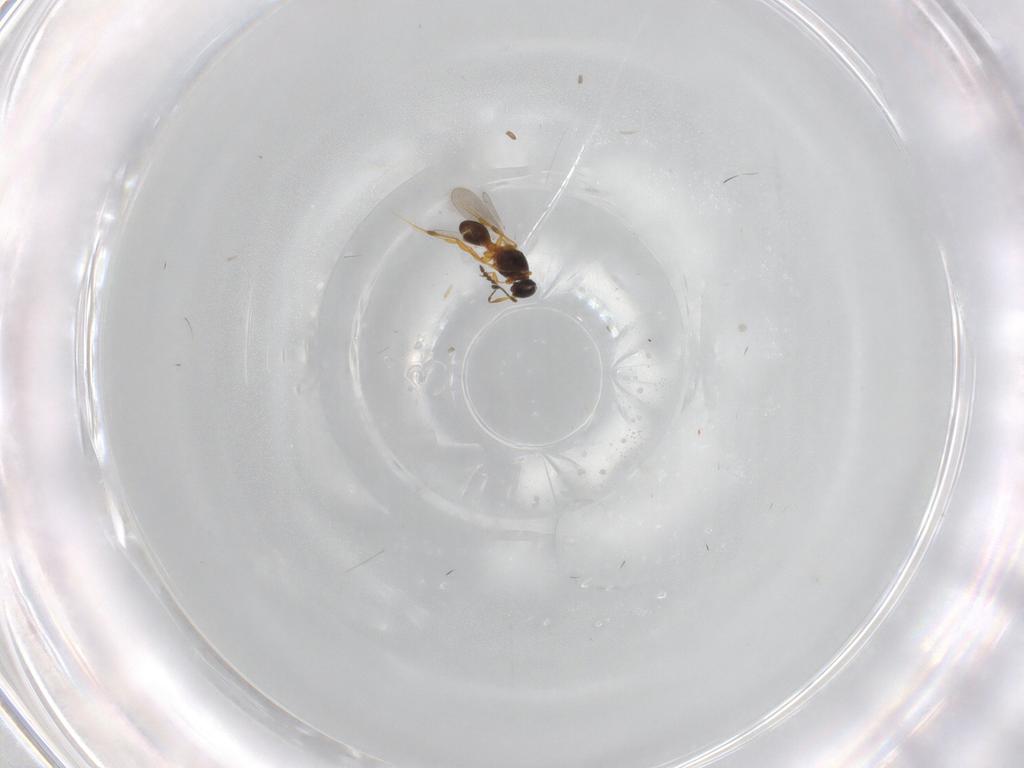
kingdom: Animalia
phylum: Arthropoda
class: Insecta
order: Hymenoptera
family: Platygastridae
